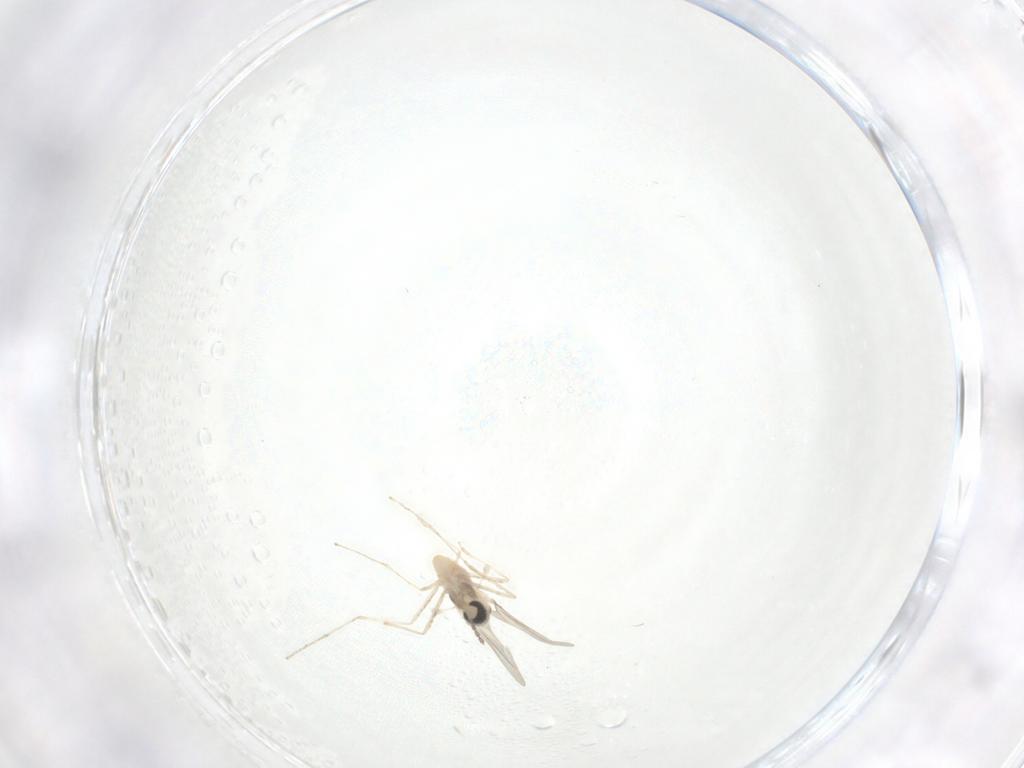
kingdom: Animalia
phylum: Arthropoda
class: Insecta
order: Diptera
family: Cecidomyiidae
